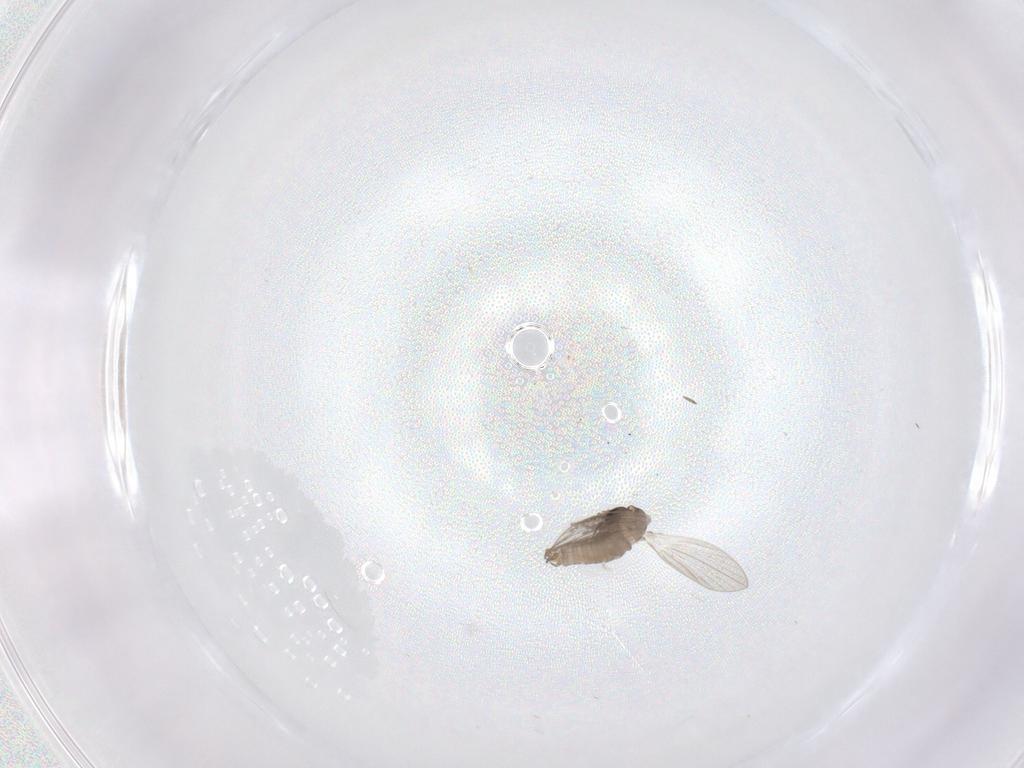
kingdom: Animalia
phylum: Arthropoda
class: Insecta
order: Diptera
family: Psychodidae
